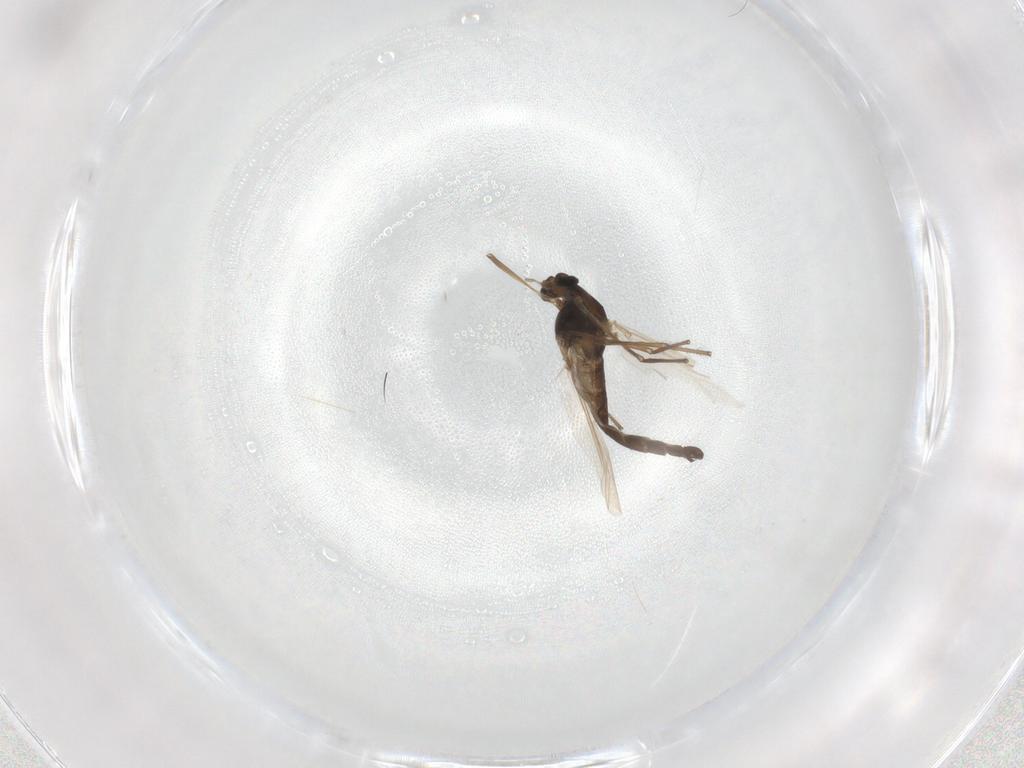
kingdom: Animalia
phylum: Arthropoda
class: Insecta
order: Diptera
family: Chironomidae
